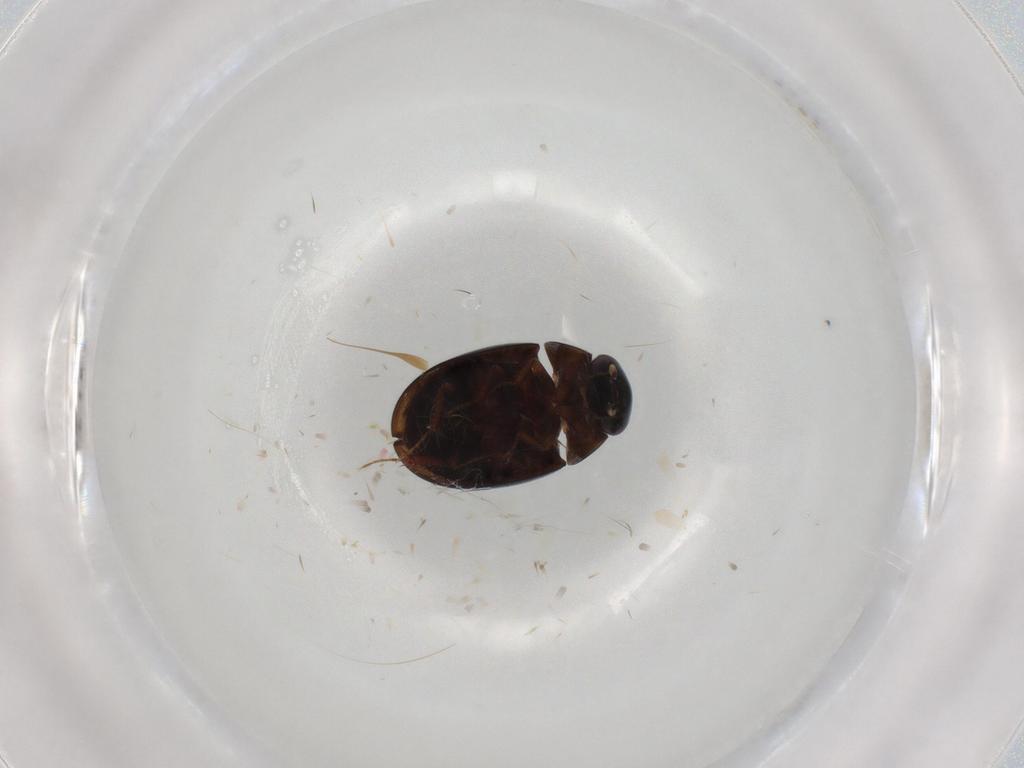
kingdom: Animalia
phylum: Arthropoda
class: Insecta
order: Coleoptera
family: Hydrophilidae
